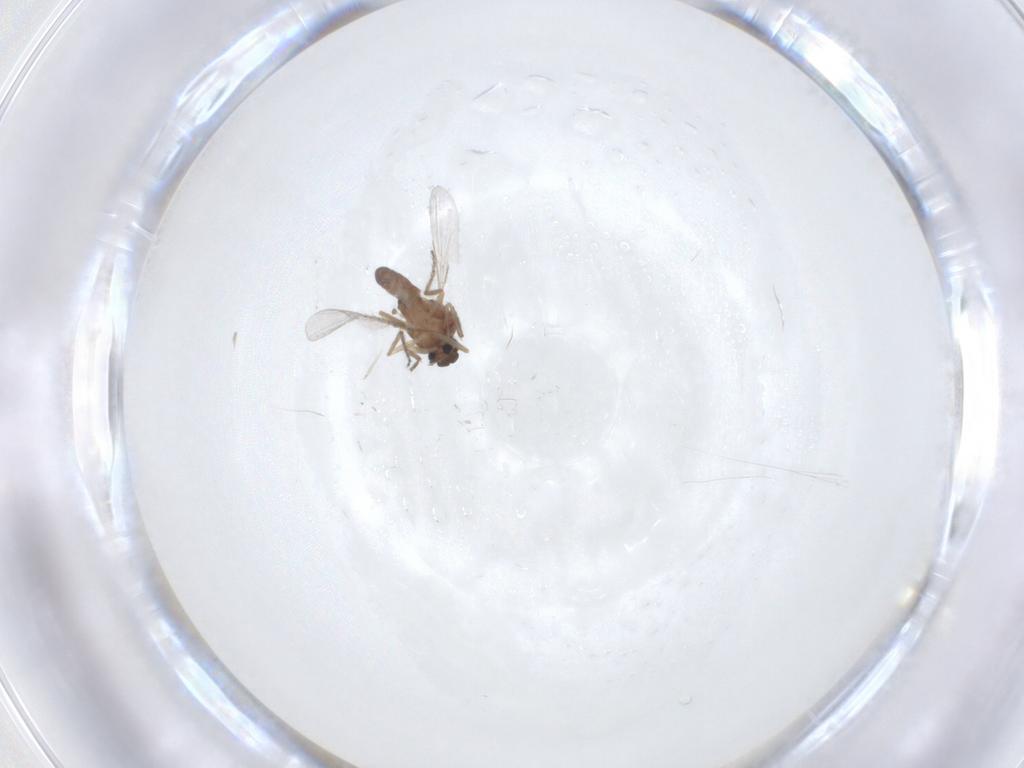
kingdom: Animalia
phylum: Arthropoda
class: Insecta
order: Diptera
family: Ceratopogonidae
